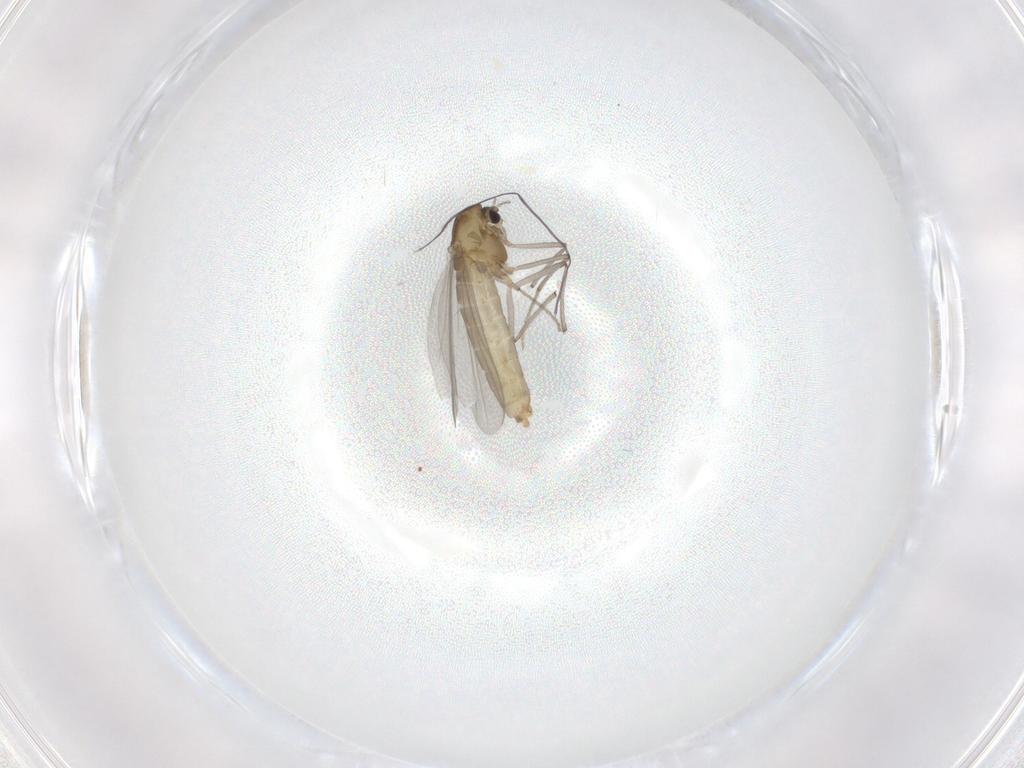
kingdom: Animalia
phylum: Arthropoda
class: Insecta
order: Diptera
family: Chironomidae
